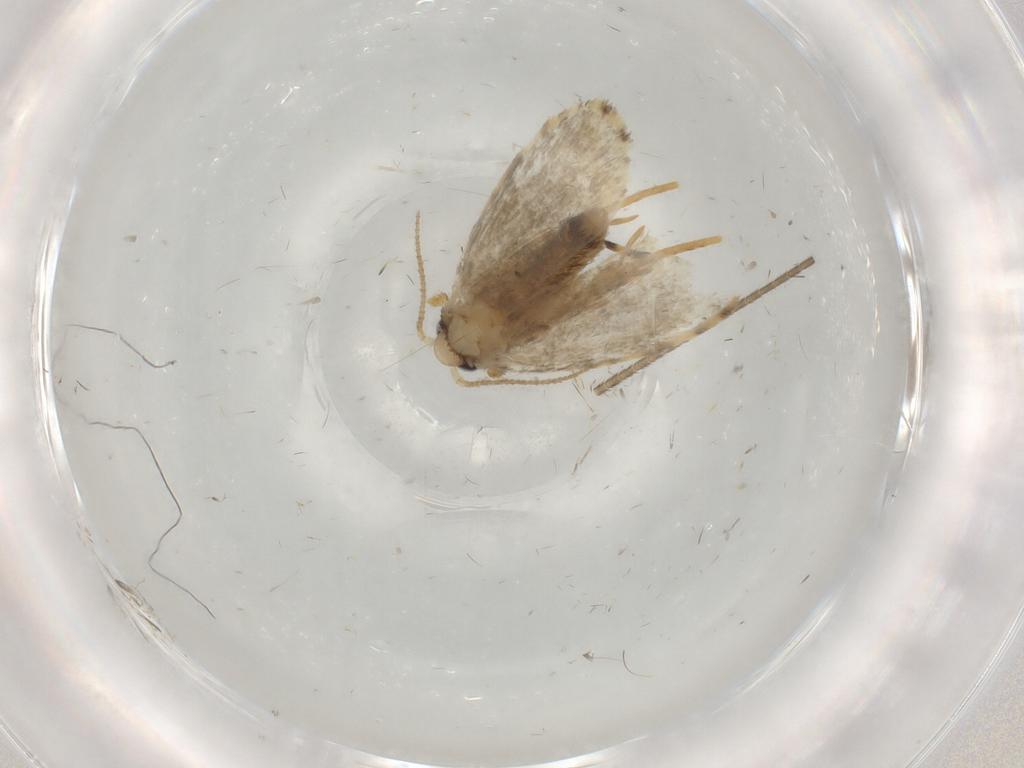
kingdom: Animalia
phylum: Arthropoda
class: Insecta
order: Lepidoptera
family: Psychidae
